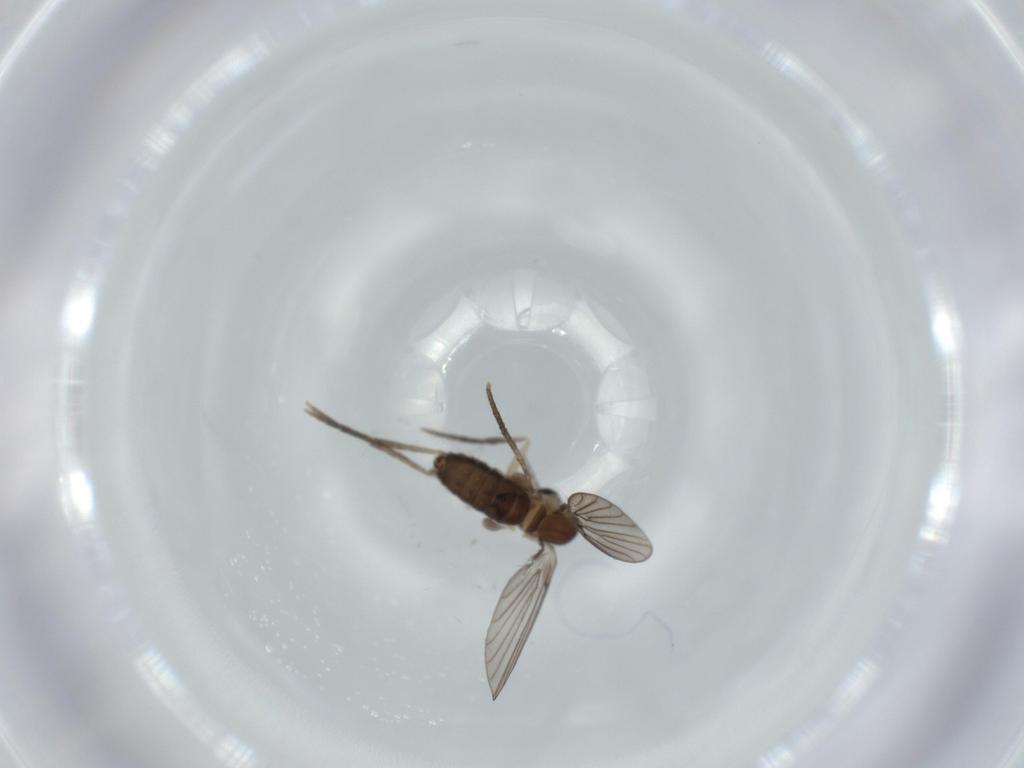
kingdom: Animalia
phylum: Arthropoda
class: Insecta
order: Diptera
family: Psychodidae
